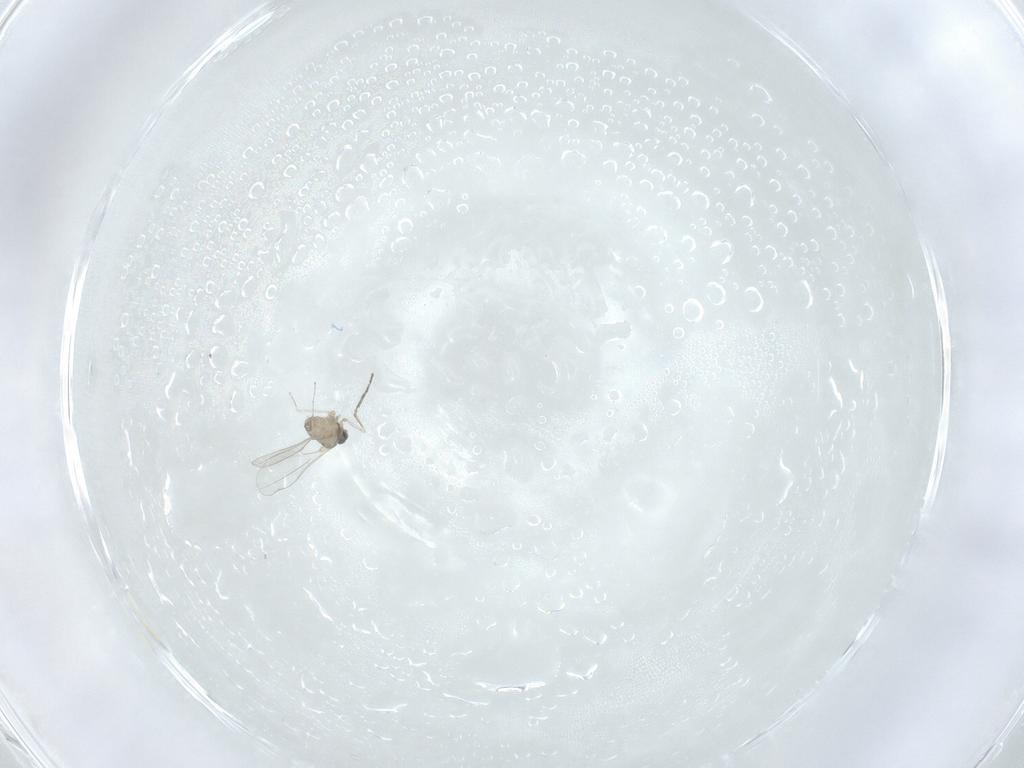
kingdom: Animalia
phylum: Arthropoda
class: Insecta
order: Diptera
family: Cecidomyiidae
